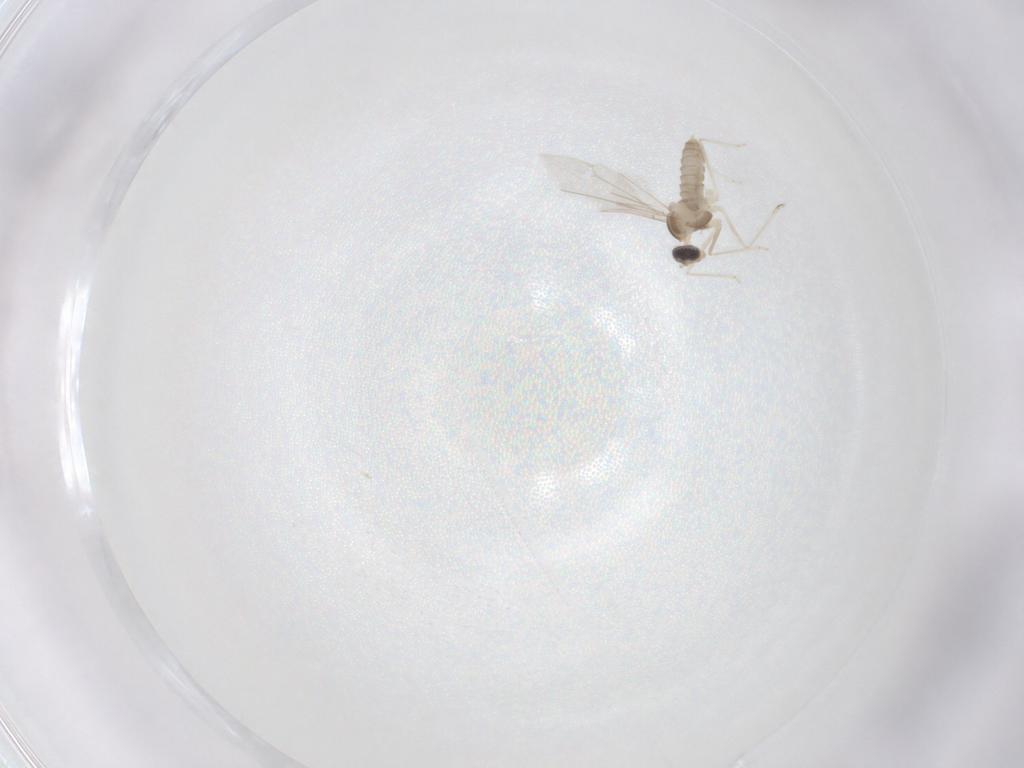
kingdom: Animalia
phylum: Arthropoda
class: Insecta
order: Diptera
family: Cecidomyiidae
